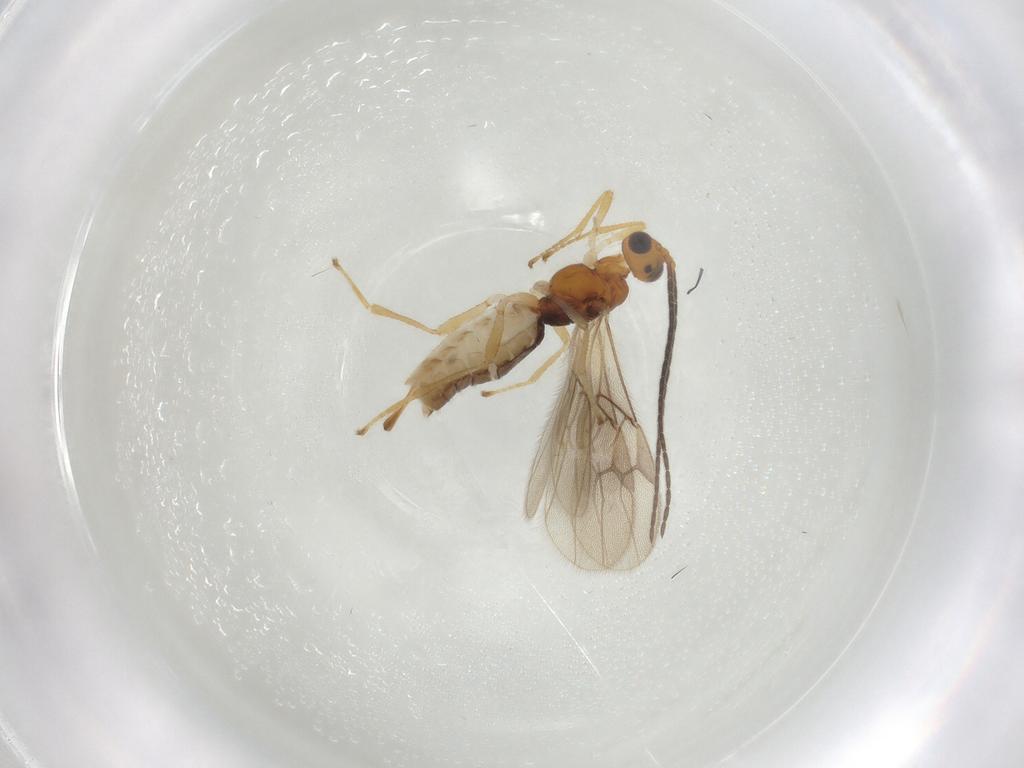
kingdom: Animalia
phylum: Arthropoda
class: Insecta
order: Hymenoptera
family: Braconidae
